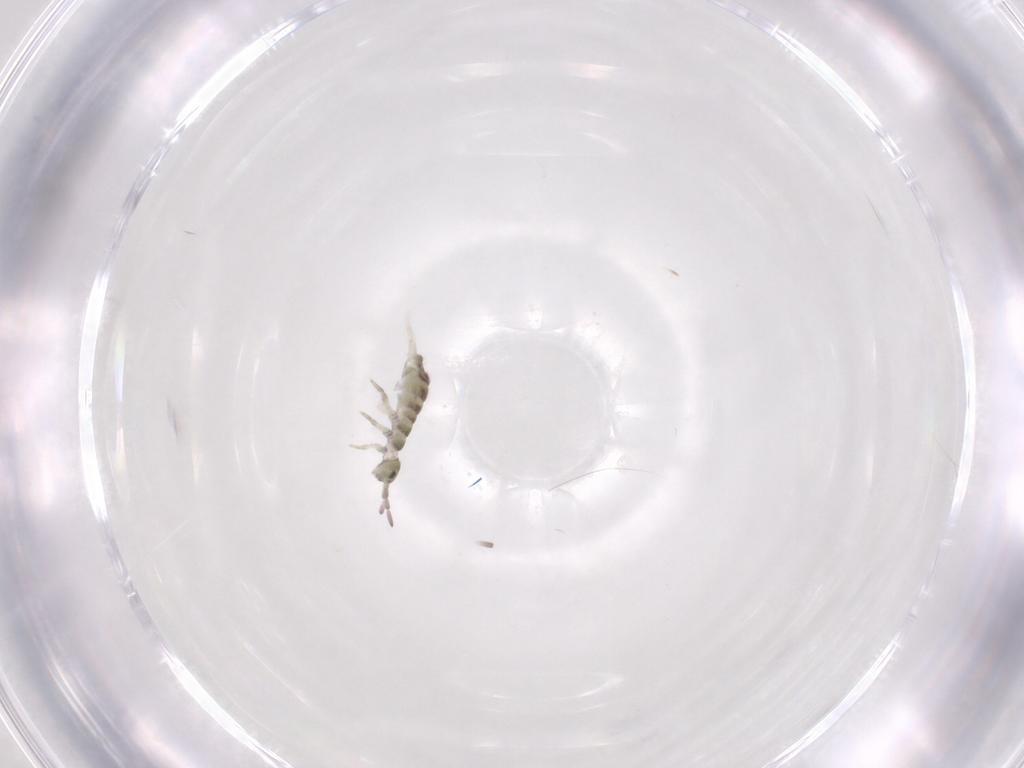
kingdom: Animalia
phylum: Arthropoda
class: Collembola
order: Entomobryomorpha
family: Isotomidae
